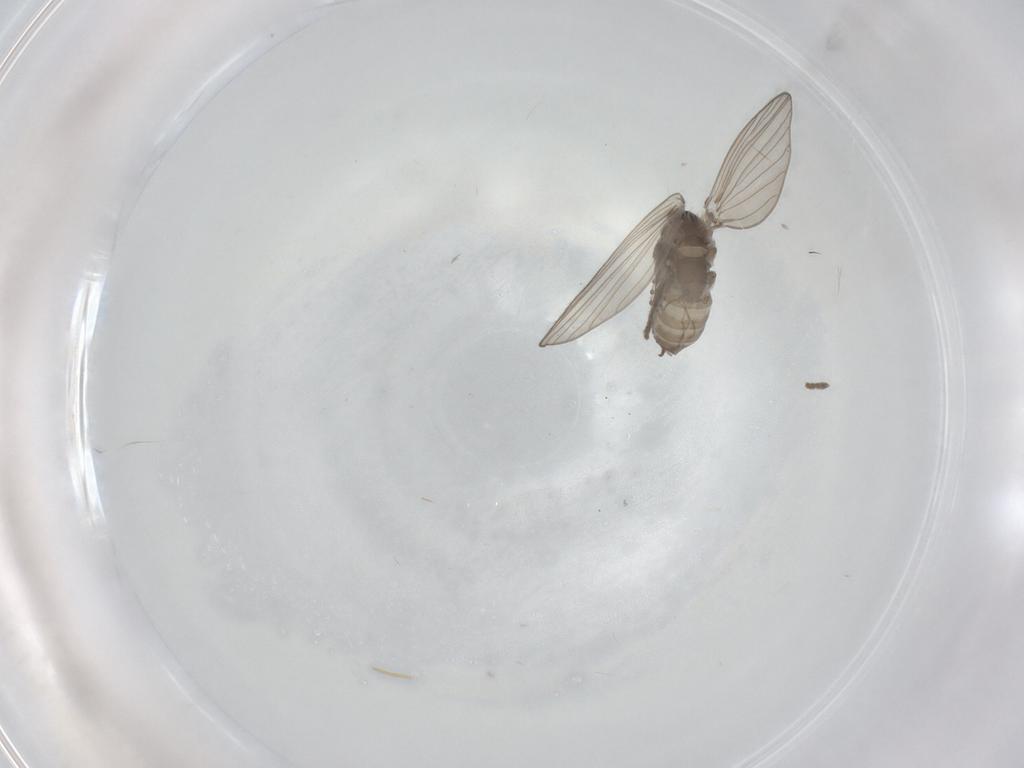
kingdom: Animalia
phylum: Arthropoda
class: Insecta
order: Diptera
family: Psychodidae
